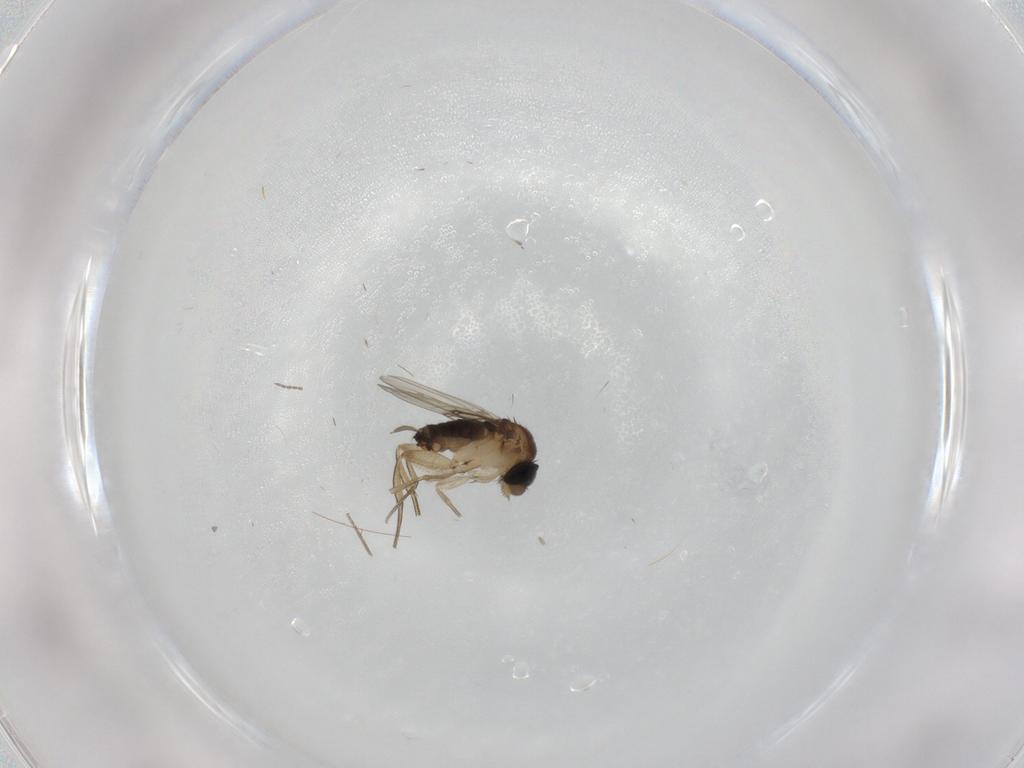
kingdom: Animalia
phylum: Arthropoda
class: Insecta
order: Diptera
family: Cecidomyiidae
